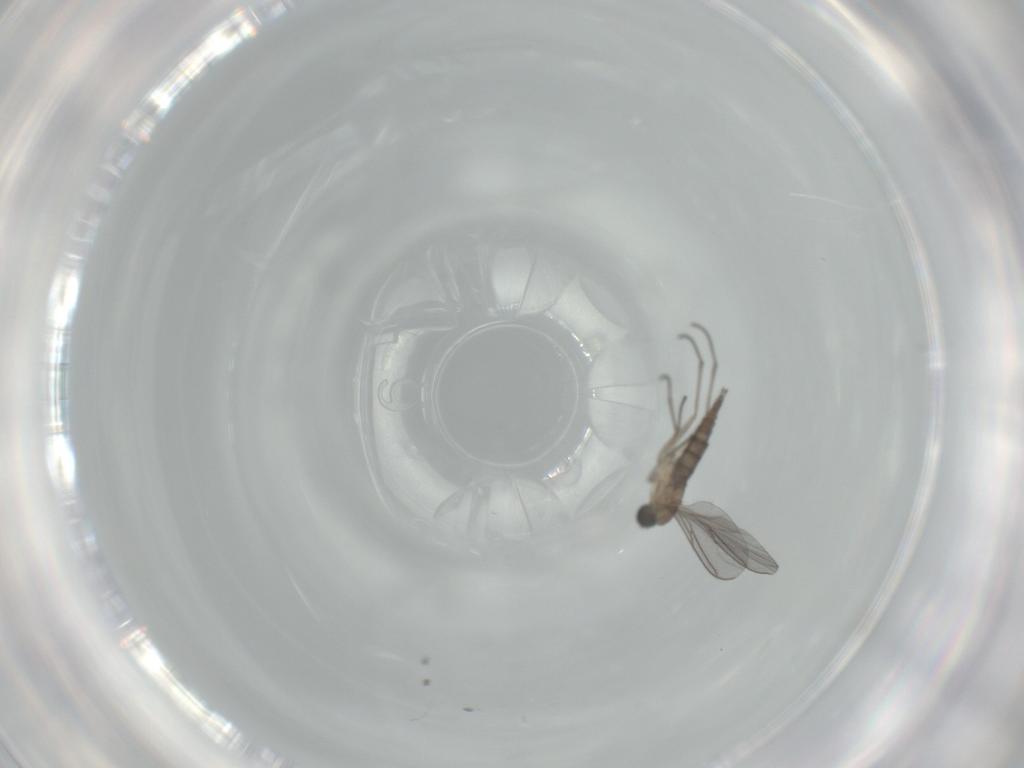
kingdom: Animalia
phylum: Arthropoda
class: Insecta
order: Diptera
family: Sciaridae
